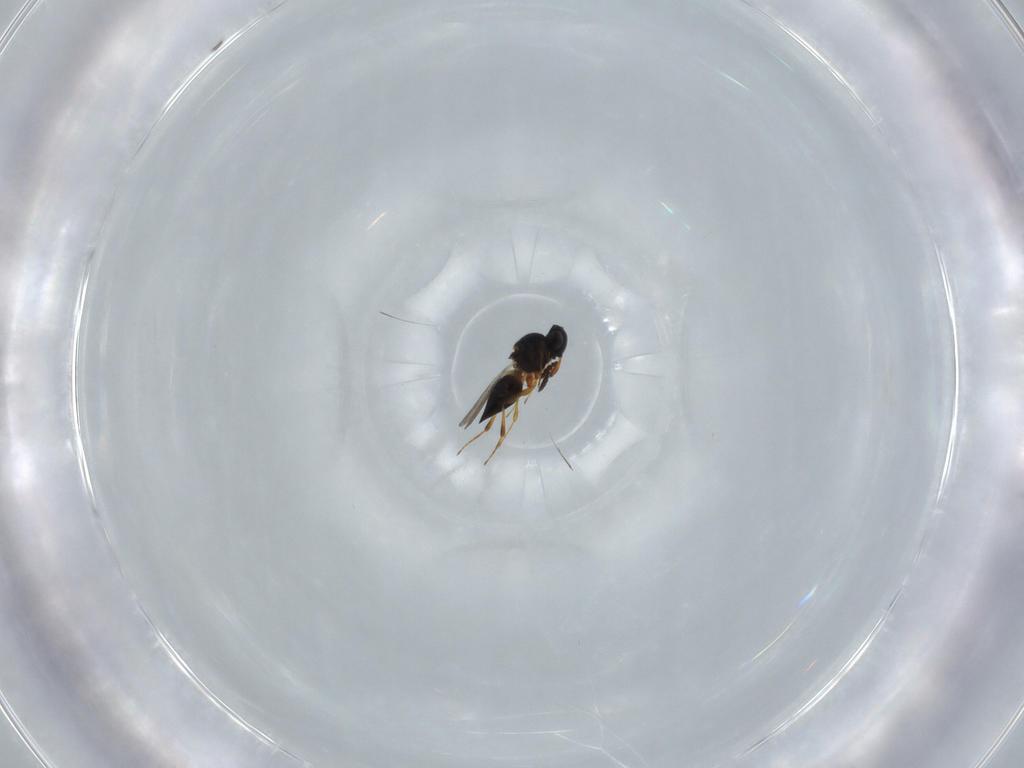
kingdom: Animalia
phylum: Arthropoda
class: Insecta
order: Hymenoptera
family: Platygastridae
